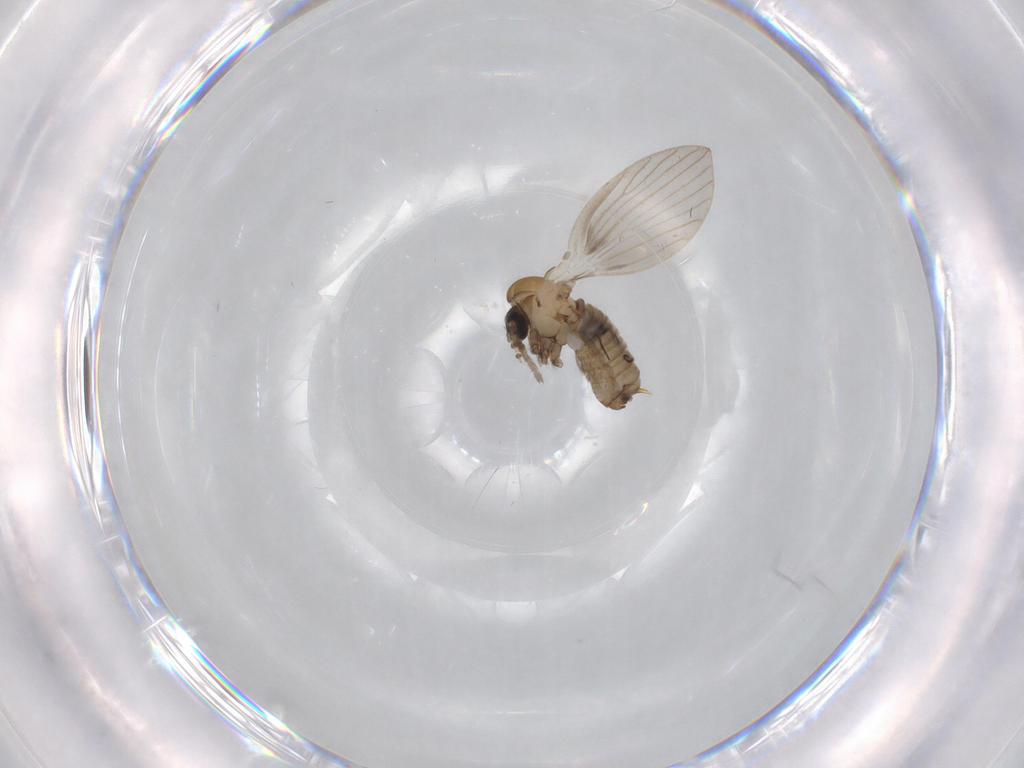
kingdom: Animalia
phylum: Arthropoda
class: Insecta
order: Diptera
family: Psychodidae
